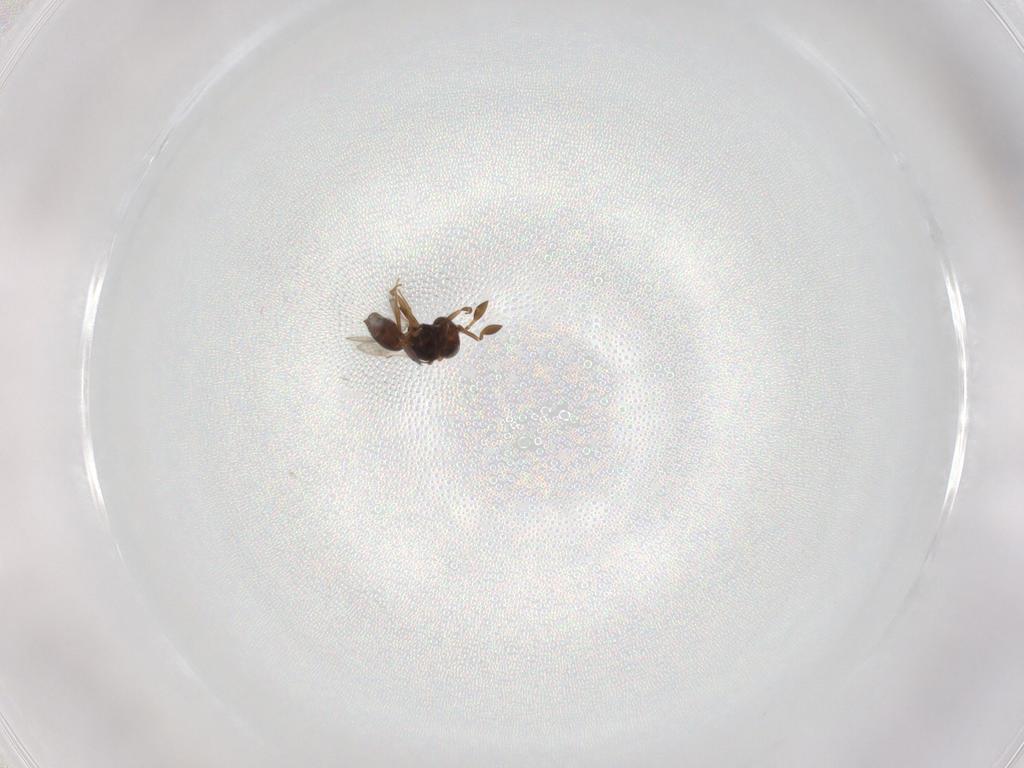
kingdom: Animalia
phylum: Arthropoda
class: Insecta
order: Hymenoptera
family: Scelionidae
